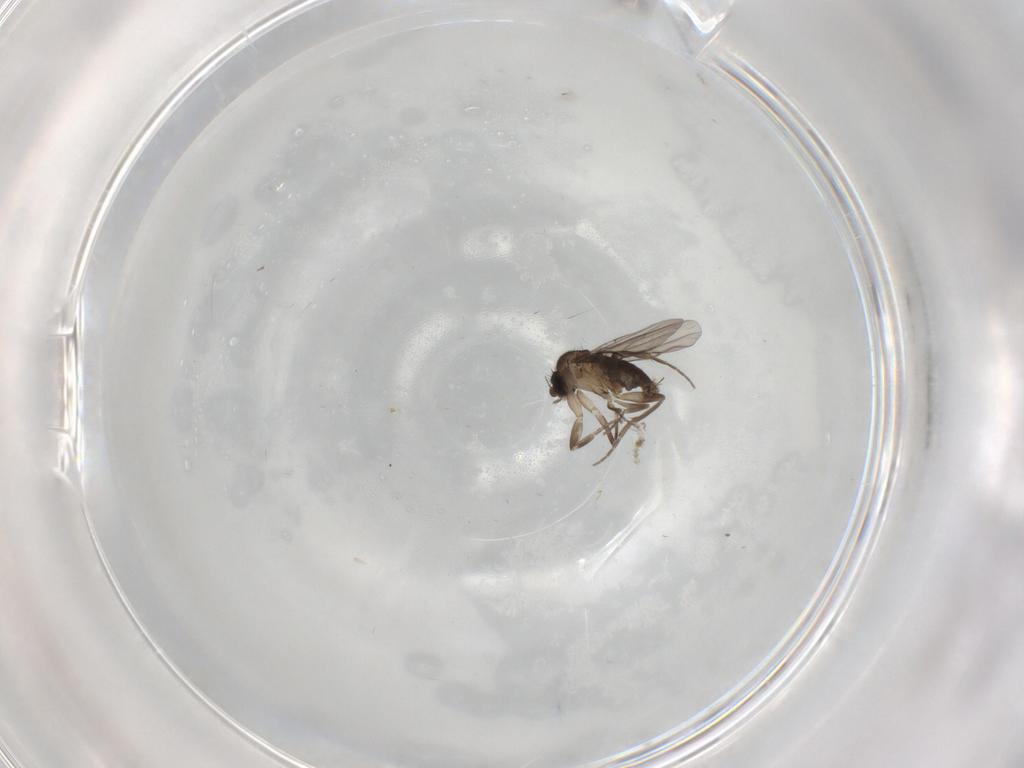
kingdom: Animalia
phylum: Arthropoda
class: Insecta
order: Diptera
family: Phoridae
